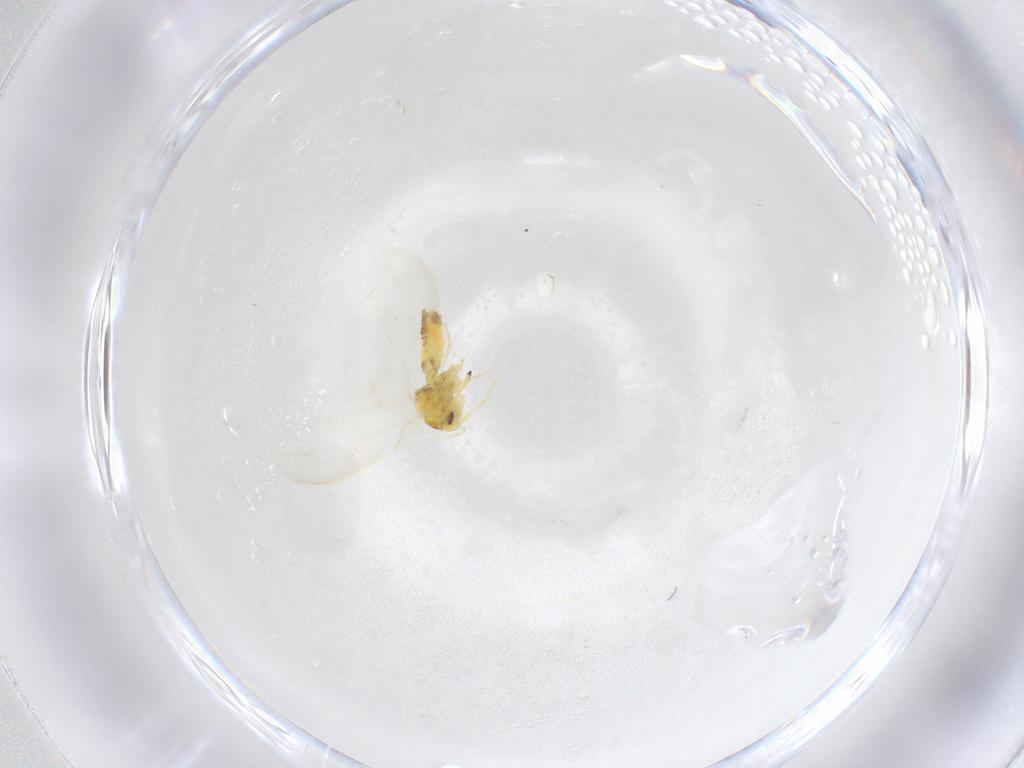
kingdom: Animalia
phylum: Arthropoda
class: Insecta
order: Hemiptera
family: Aleyrodidae
